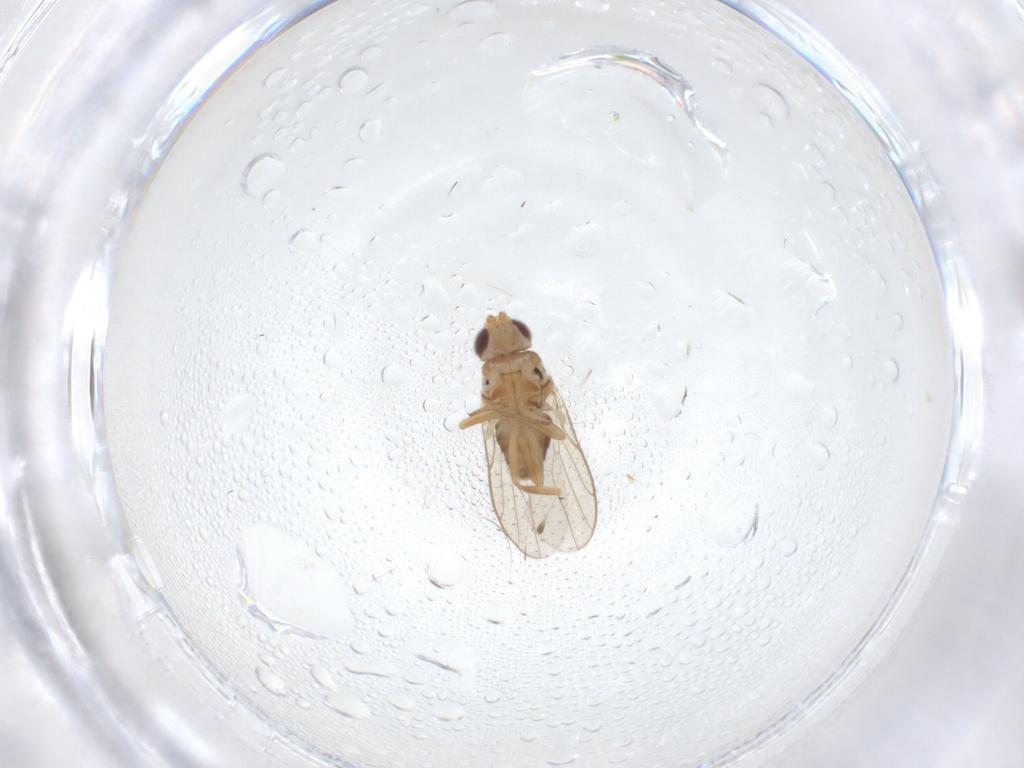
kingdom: Animalia
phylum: Arthropoda
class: Insecta
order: Diptera
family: Chloropidae
